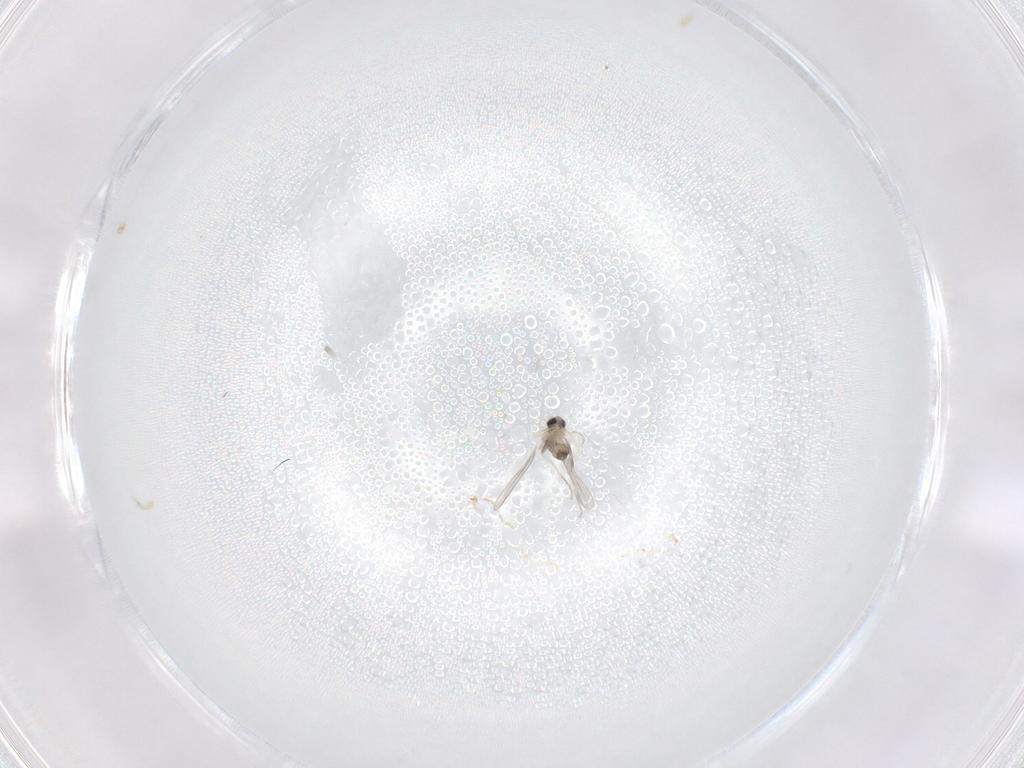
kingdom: Animalia
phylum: Arthropoda
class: Insecta
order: Diptera
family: Cecidomyiidae
